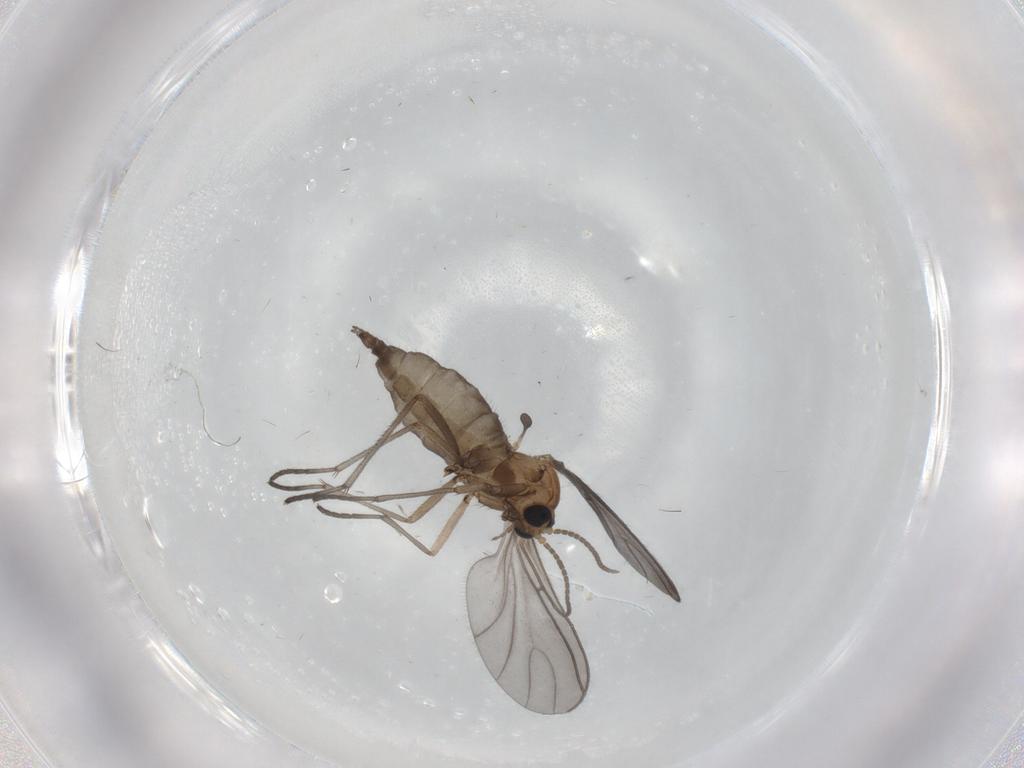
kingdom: Animalia
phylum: Arthropoda
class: Insecta
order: Diptera
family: Sciaridae
